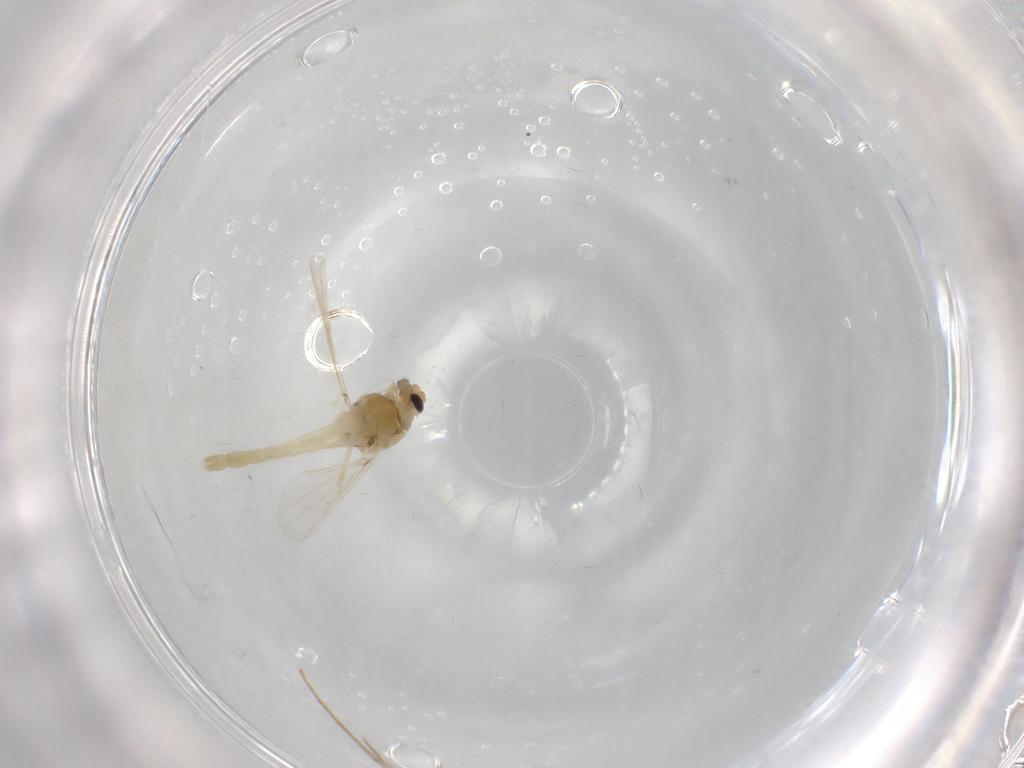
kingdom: Animalia
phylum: Arthropoda
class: Insecta
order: Diptera
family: Chironomidae
